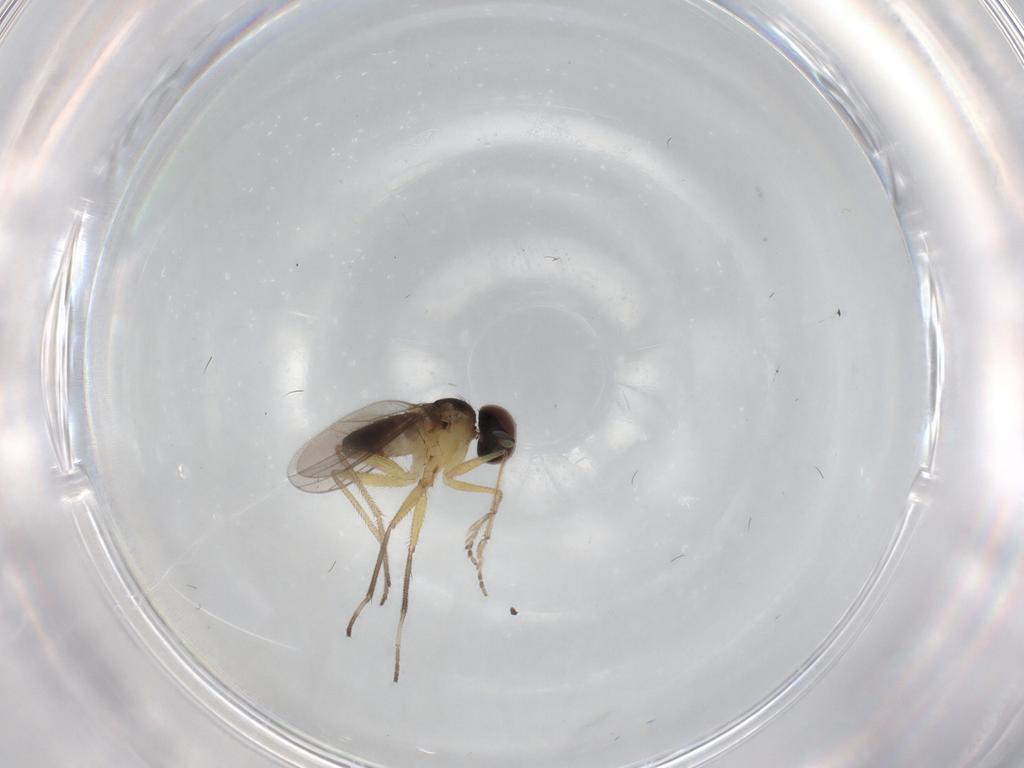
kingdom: Animalia
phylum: Arthropoda
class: Insecta
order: Diptera
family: Dolichopodidae
